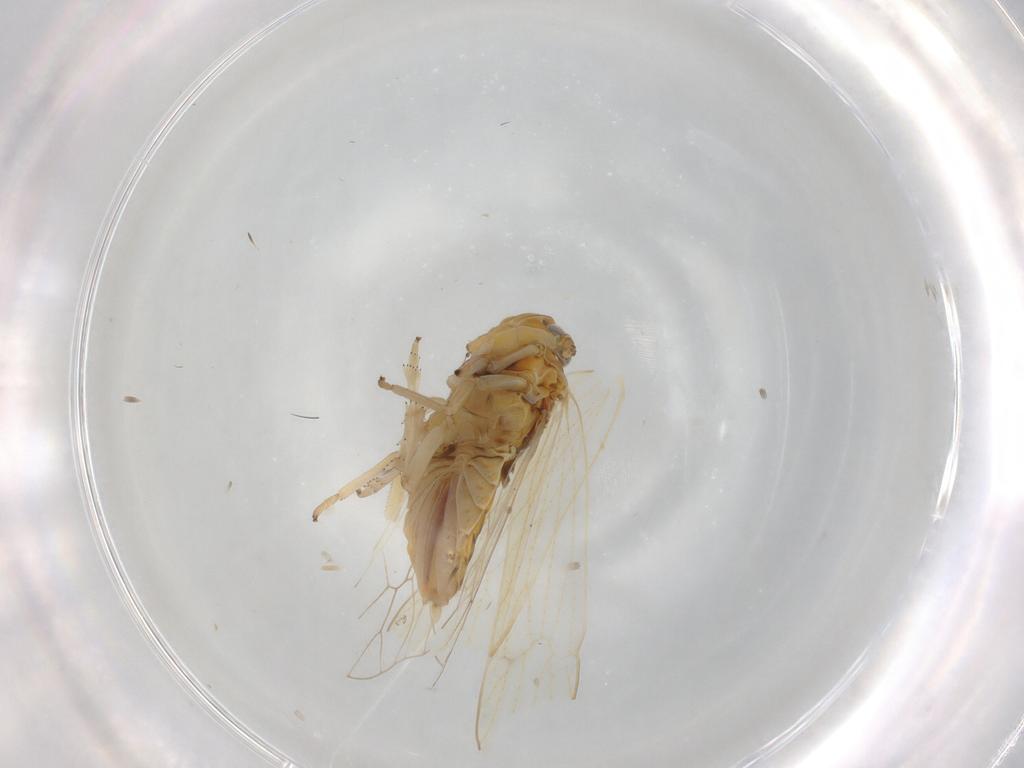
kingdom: Animalia
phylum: Arthropoda
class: Insecta
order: Hemiptera
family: Delphacidae
